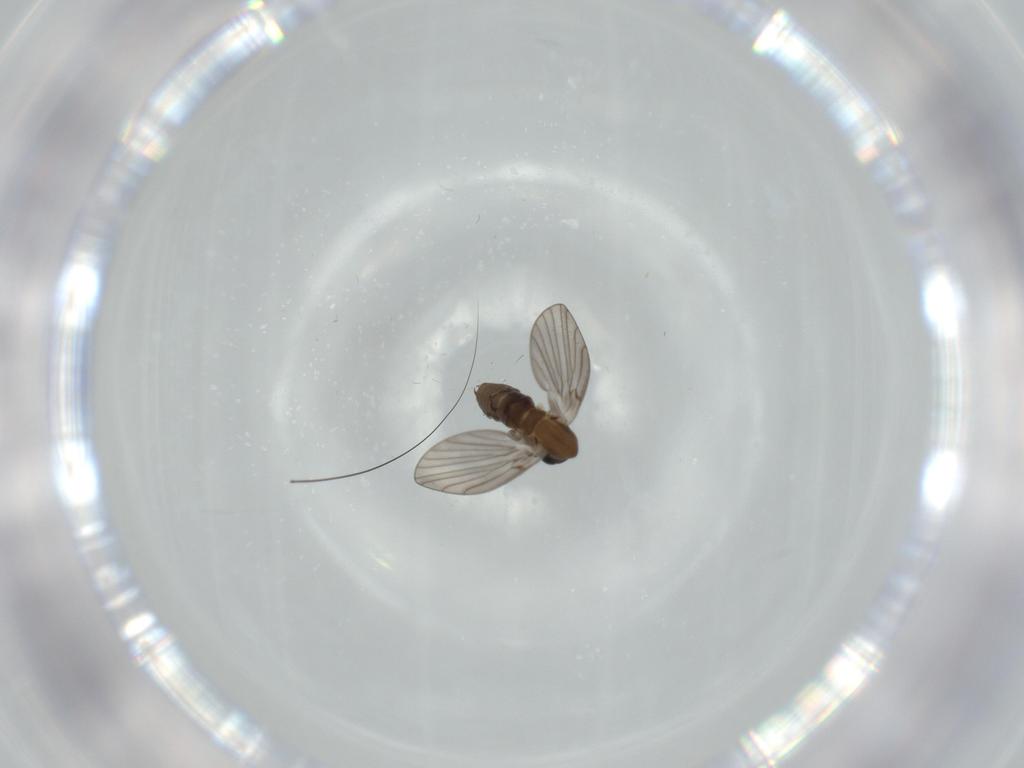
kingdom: Animalia
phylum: Arthropoda
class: Insecta
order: Diptera
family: Psychodidae
